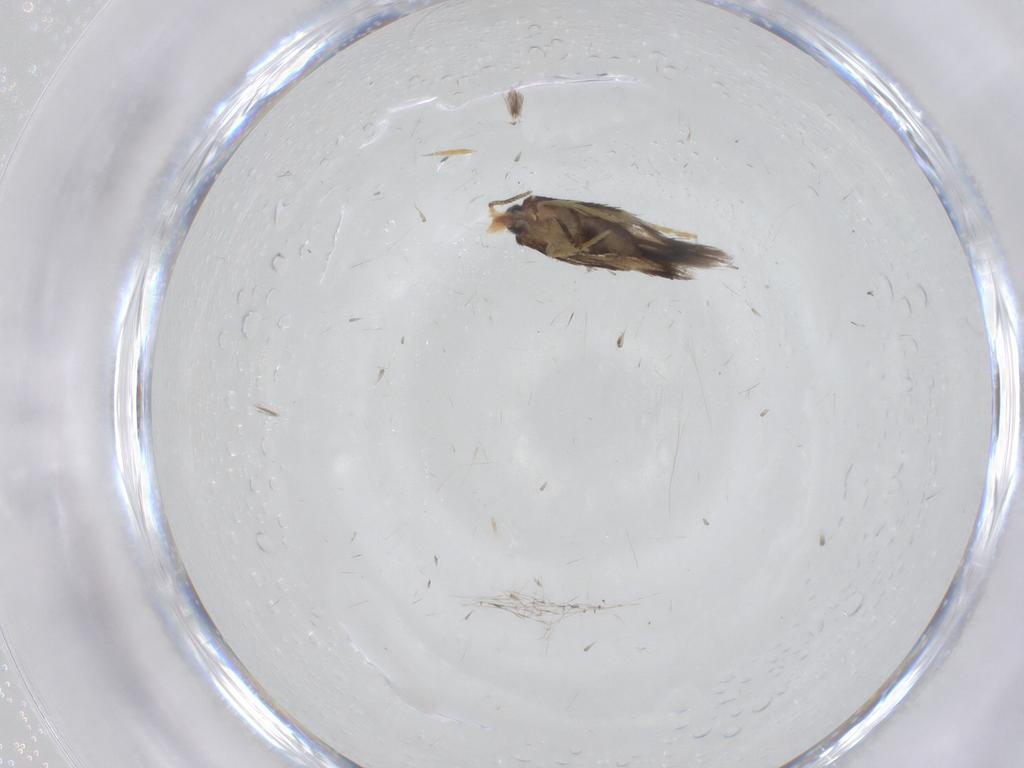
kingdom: Animalia
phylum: Arthropoda
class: Insecta
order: Lepidoptera
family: Nepticulidae
